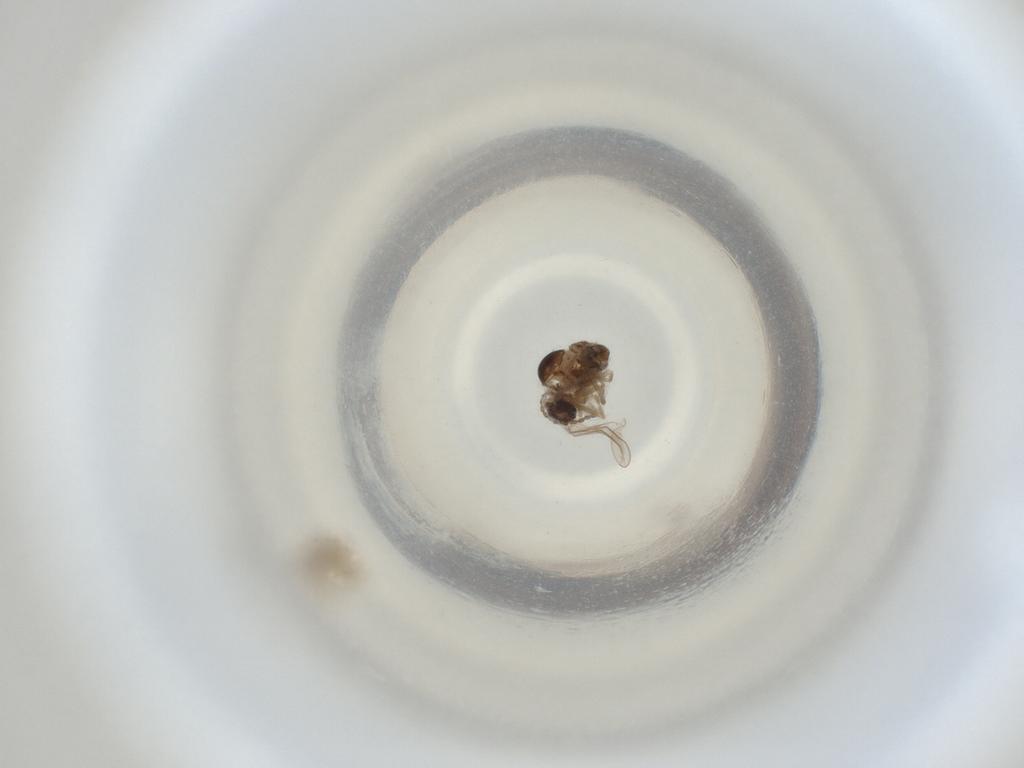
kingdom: Animalia
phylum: Arthropoda
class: Insecta
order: Diptera
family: Cecidomyiidae
